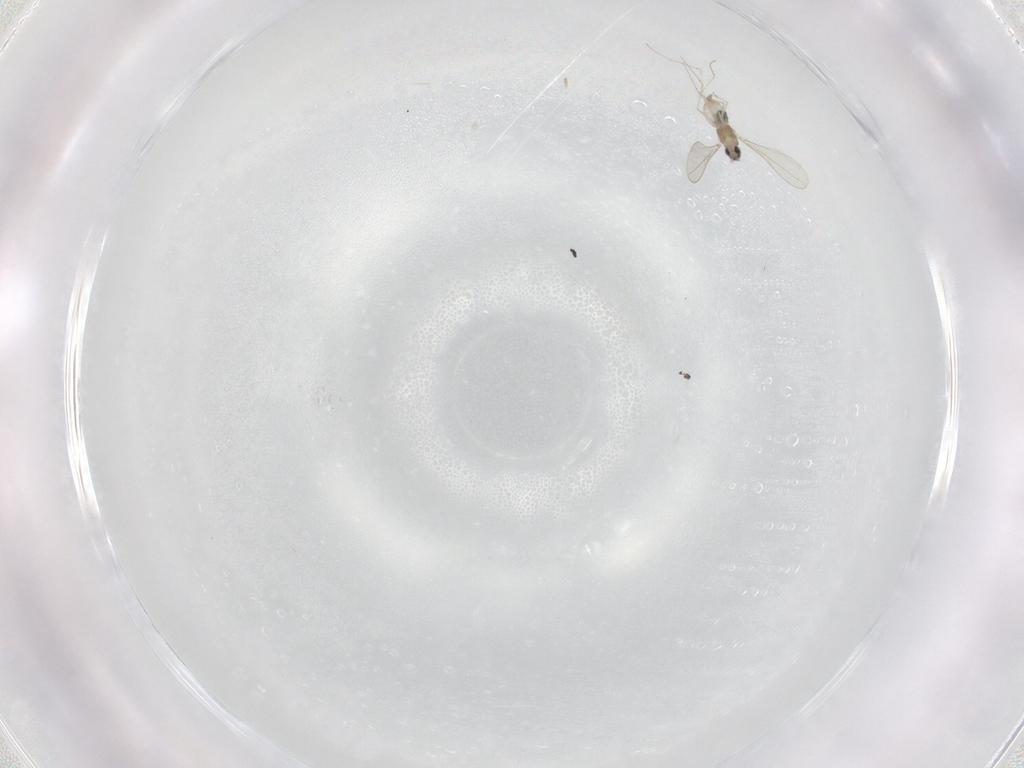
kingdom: Animalia
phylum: Arthropoda
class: Insecta
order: Diptera
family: Cecidomyiidae
